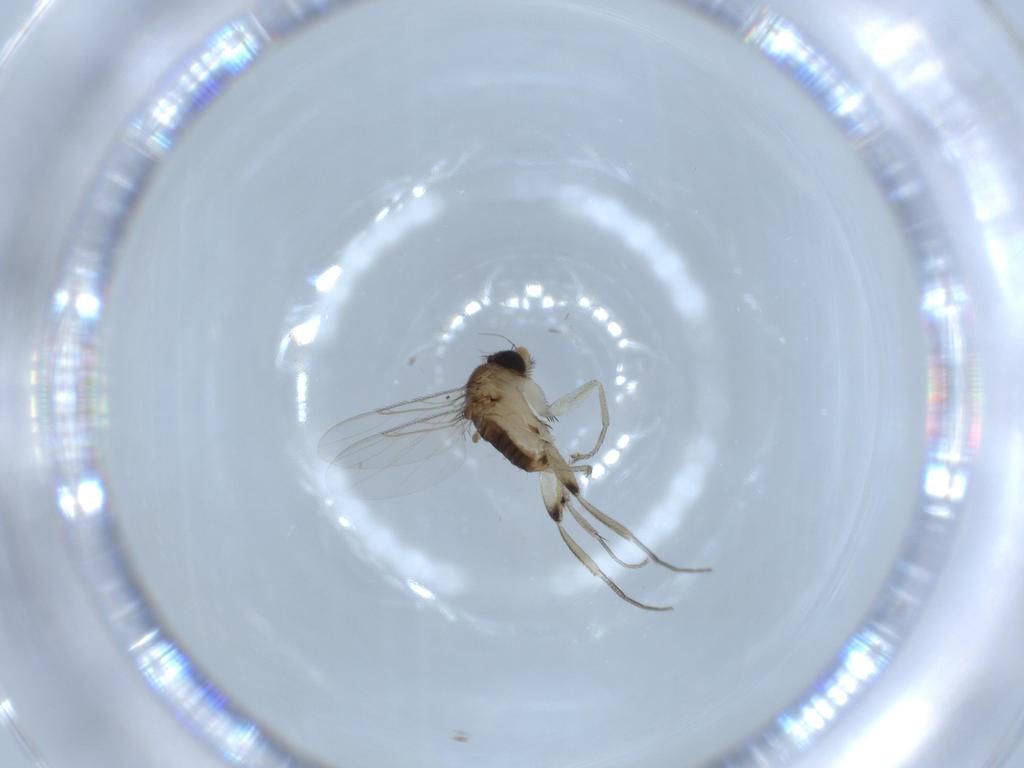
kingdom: Animalia
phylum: Arthropoda
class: Insecta
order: Diptera
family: Phoridae
